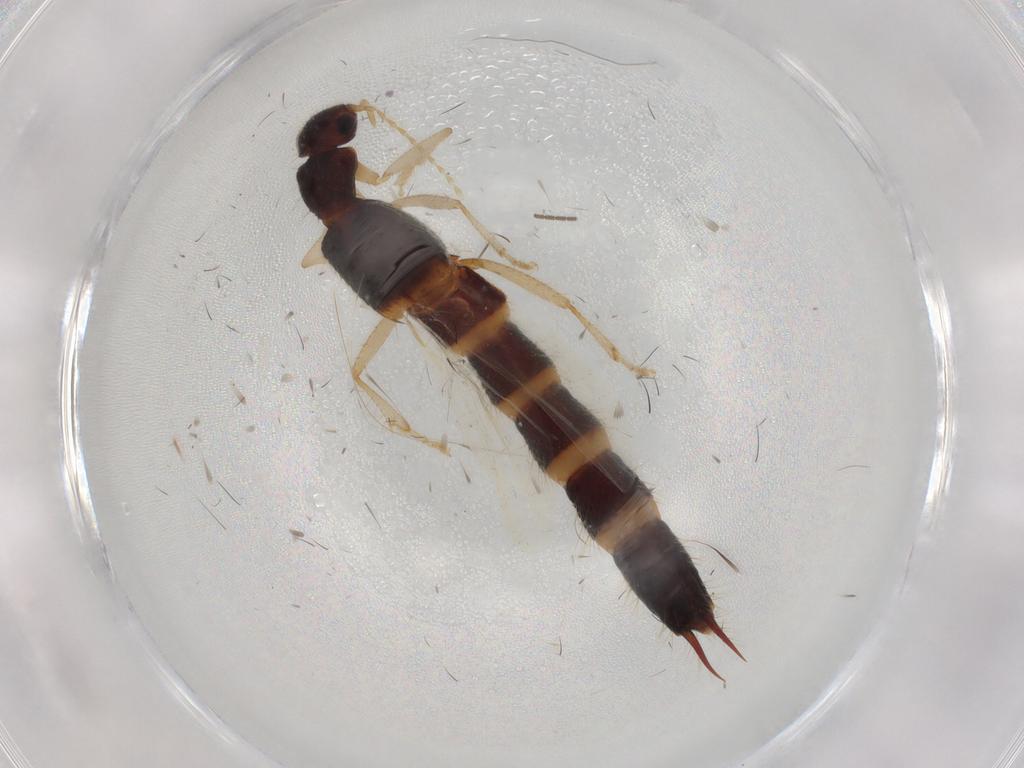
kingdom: Animalia
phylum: Arthropoda
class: Insecta
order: Coleoptera
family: Staphylinidae
